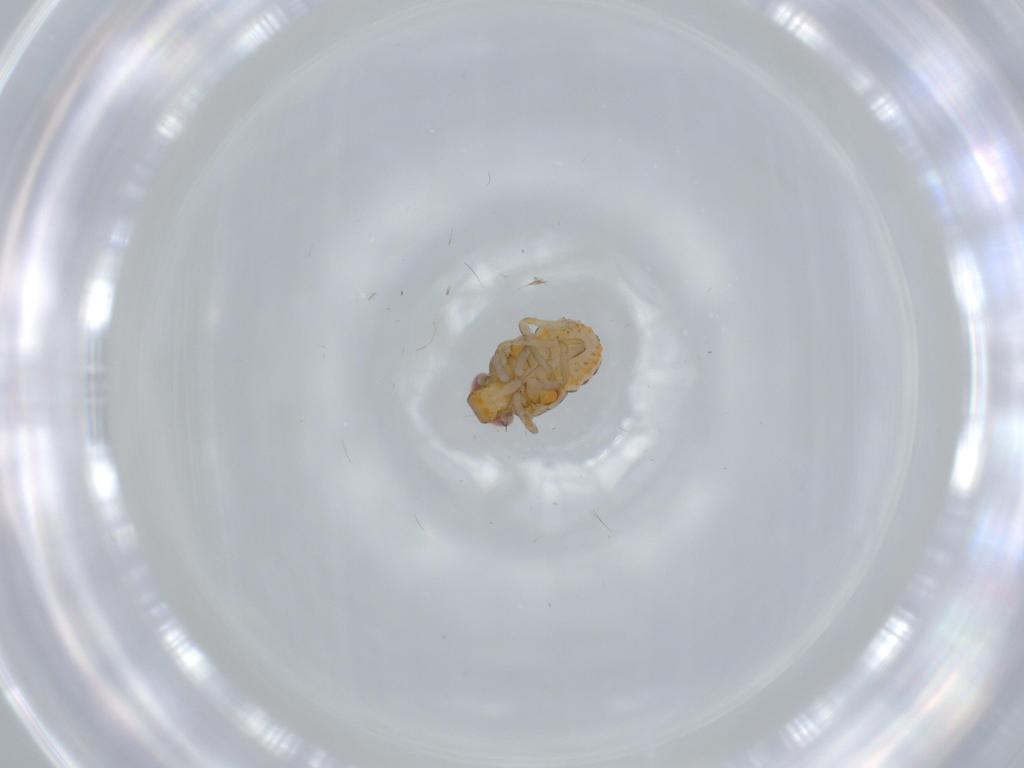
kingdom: Animalia
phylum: Arthropoda
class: Insecta
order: Hemiptera
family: Issidae
